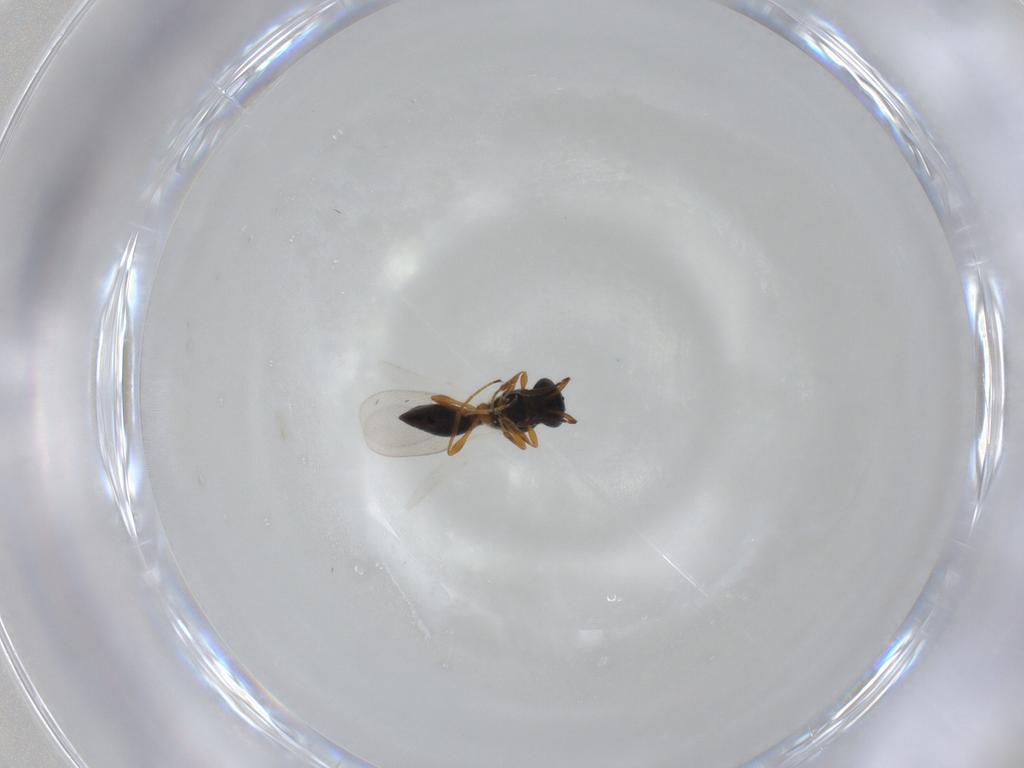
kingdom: Animalia
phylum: Arthropoda
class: Insecta
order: Hymenoptera
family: Platygastridae
